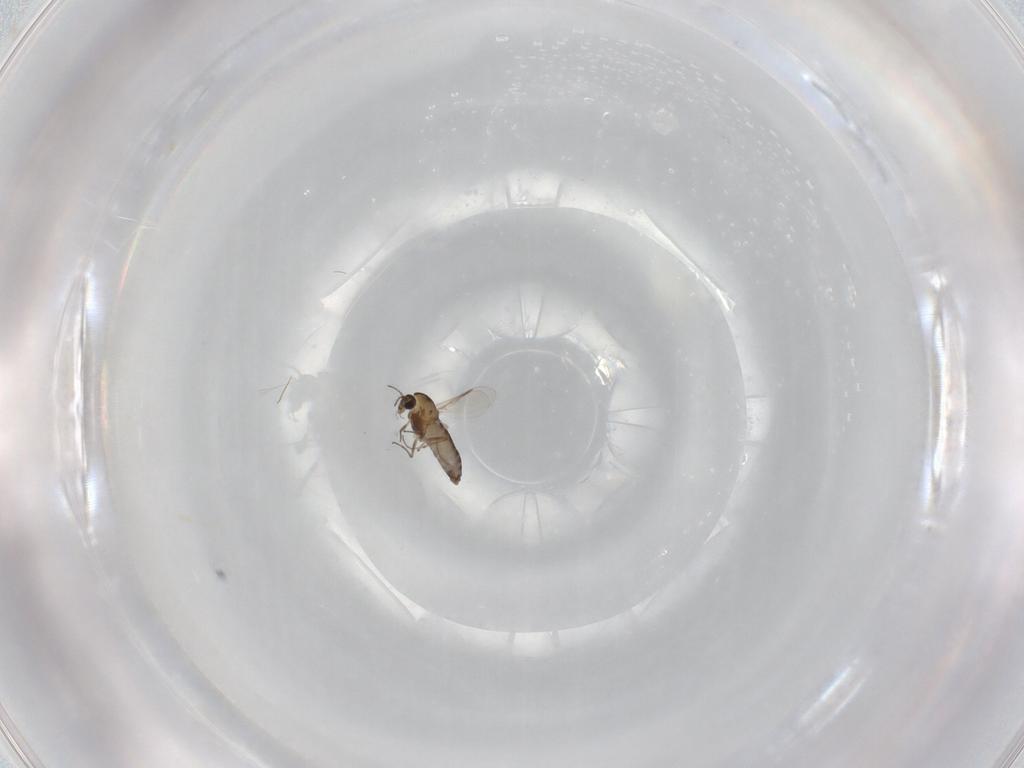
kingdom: Animalia
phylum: Arthropoda
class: Insecta
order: Diptera
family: Chironomidae
